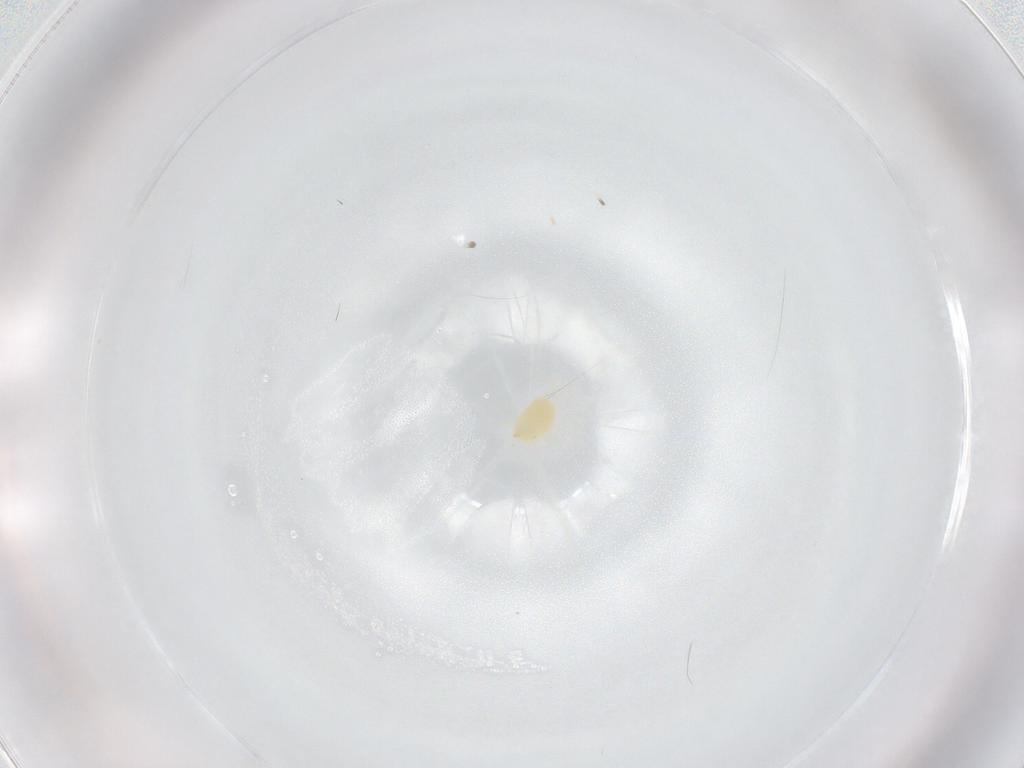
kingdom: Animalia
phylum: Arthropoda
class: Arachnida
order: Trombidiformes
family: Tetranychidae
